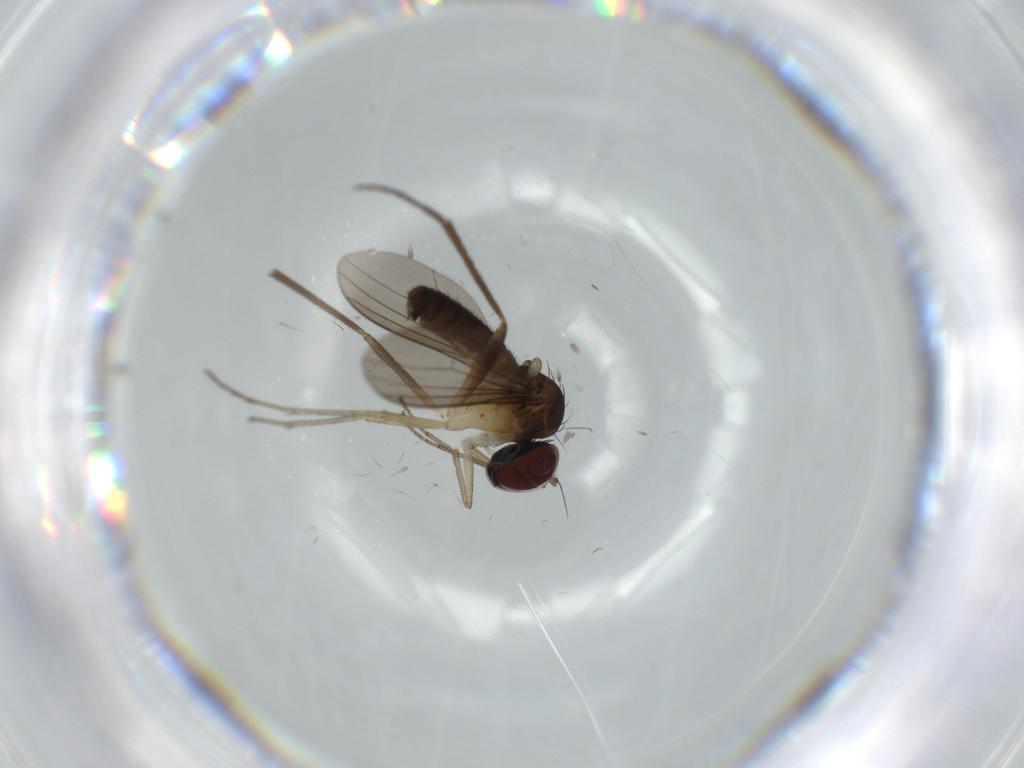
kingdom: Animalia
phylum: Arthropoda
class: Insecta
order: Diptera
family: Dolichopodidae
